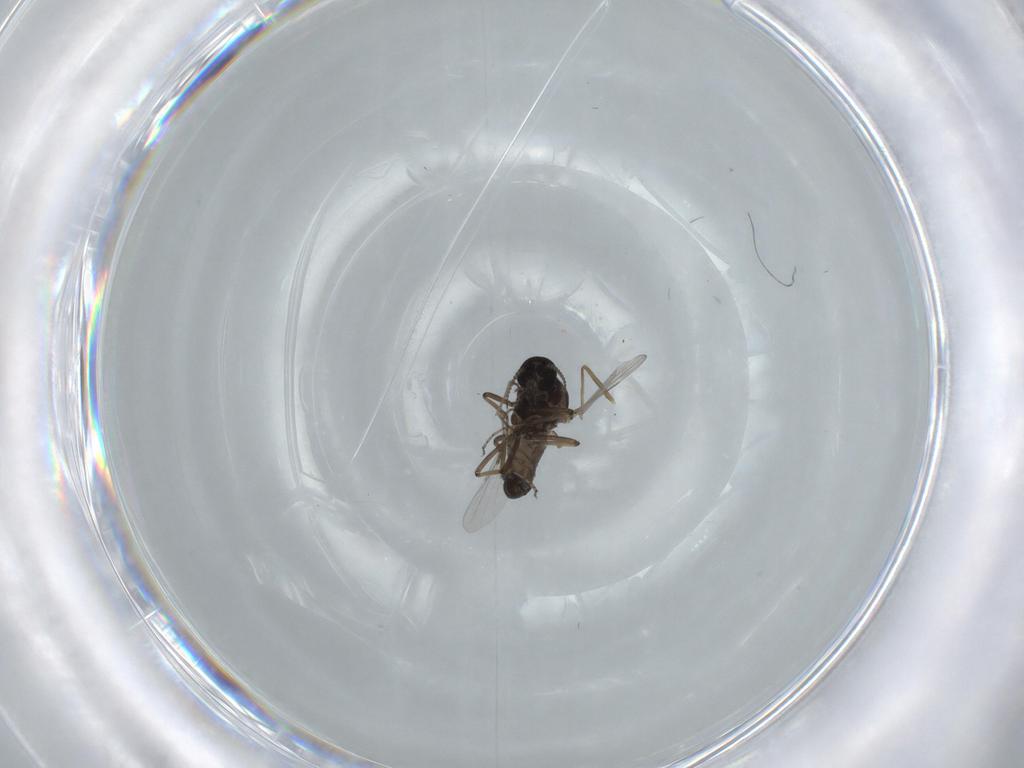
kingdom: Animalia
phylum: Arthropoda
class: Insecta
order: Diptera
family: Ceratopogonidae
